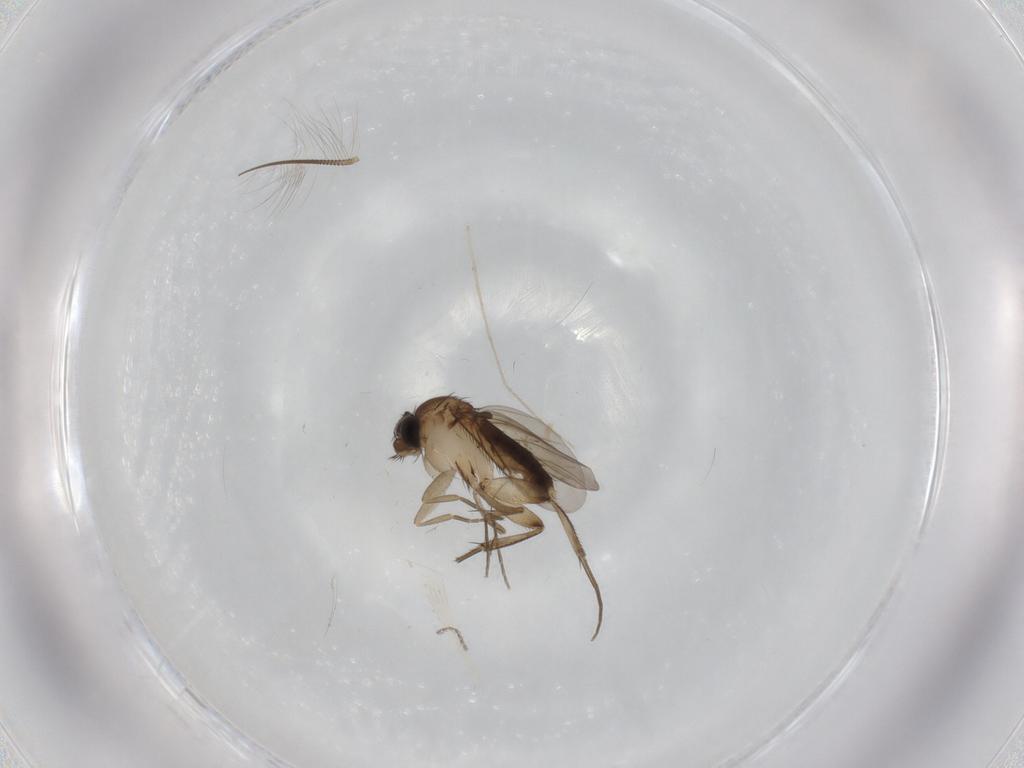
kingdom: Animalia
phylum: Arthropoda
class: Insecta
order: Diptera
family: Phoridae
